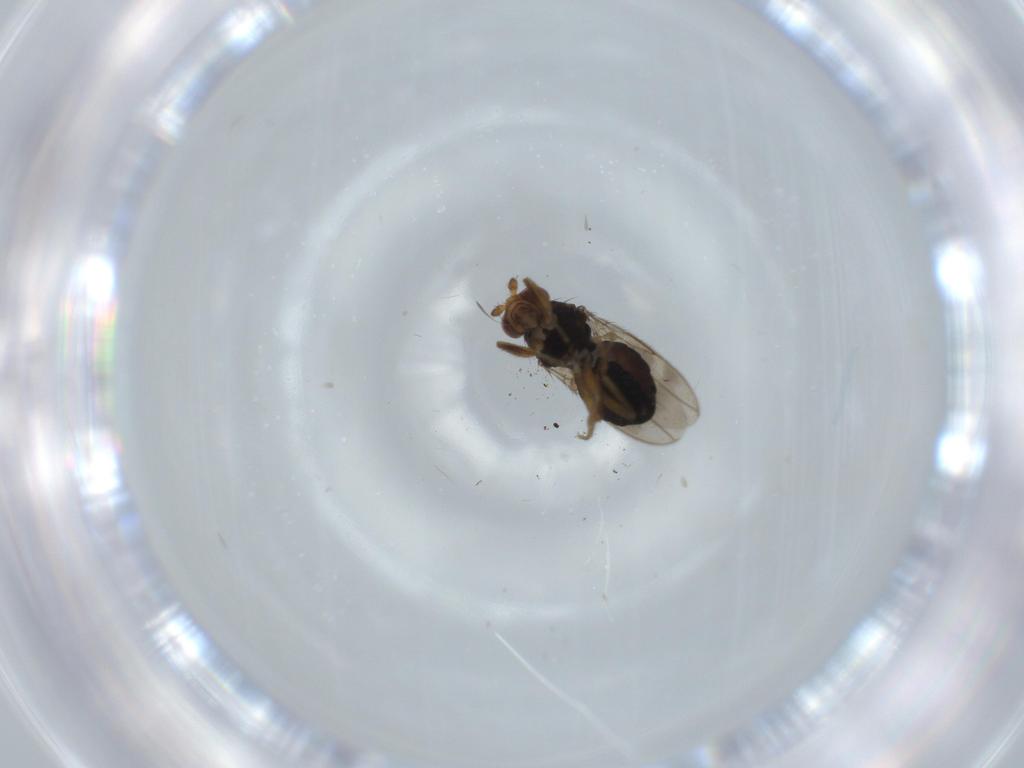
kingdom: Animalia
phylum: Arthropoda
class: Insecta
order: Diptera
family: Sphaeroceridae
